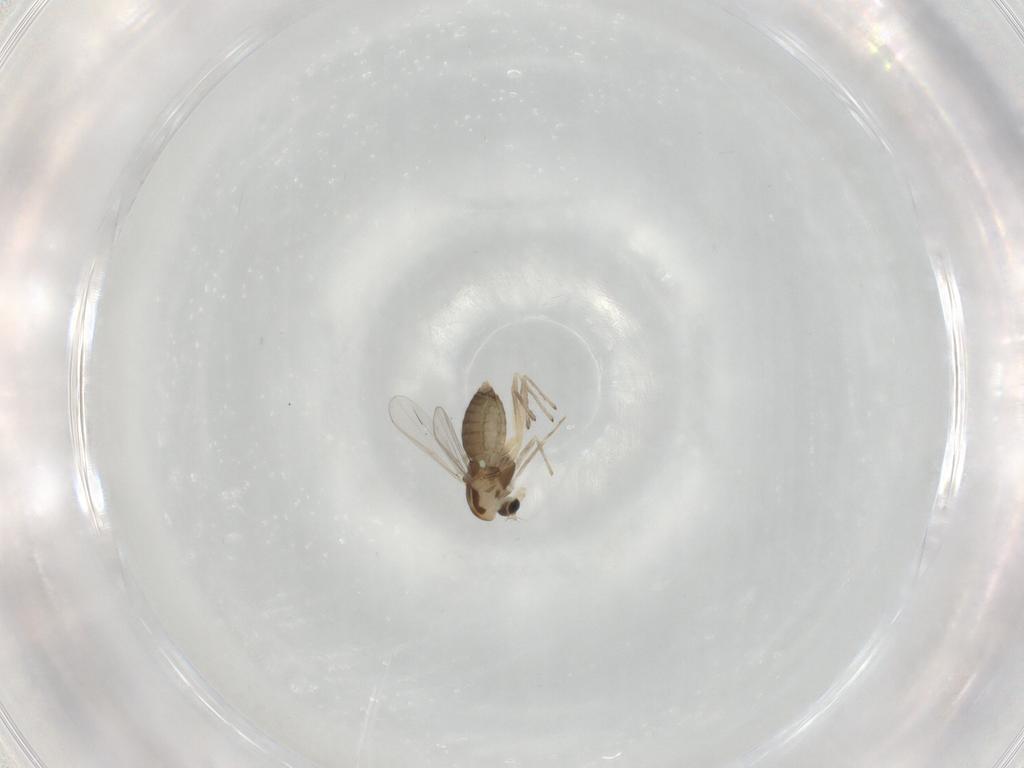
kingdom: Animalia
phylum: Arthropoda
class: Insecta
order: Diptera
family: Chironomidae
